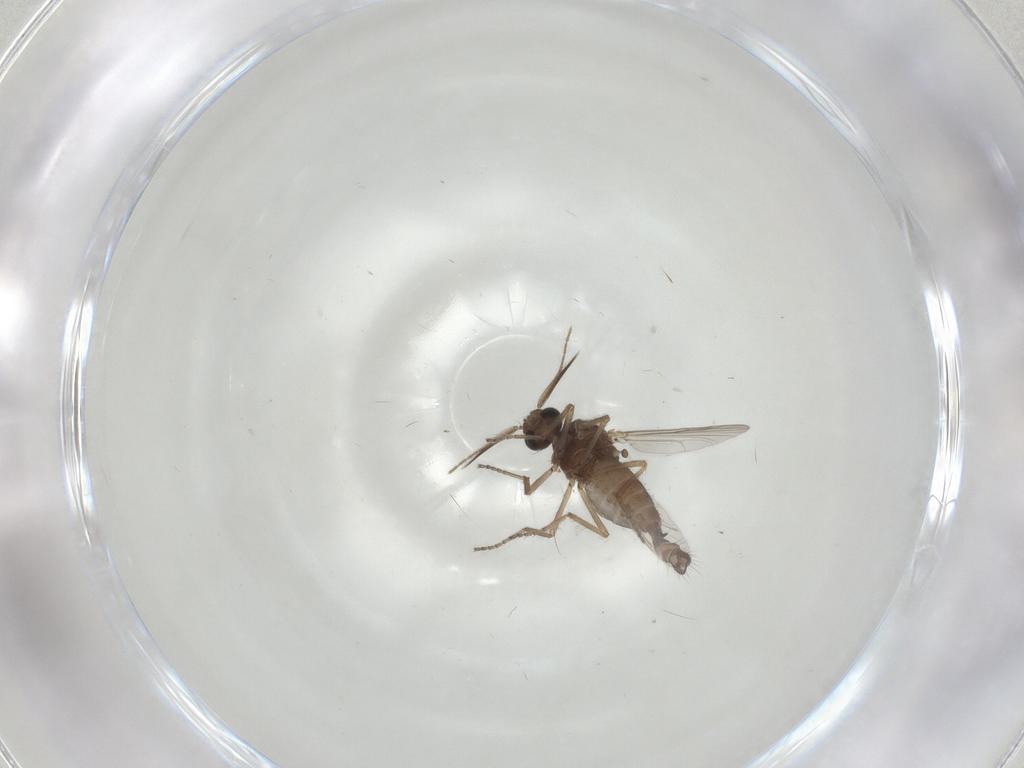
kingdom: Animalia
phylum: Arthropoda
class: Insecta
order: Diptera
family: Ceratopogonidae
